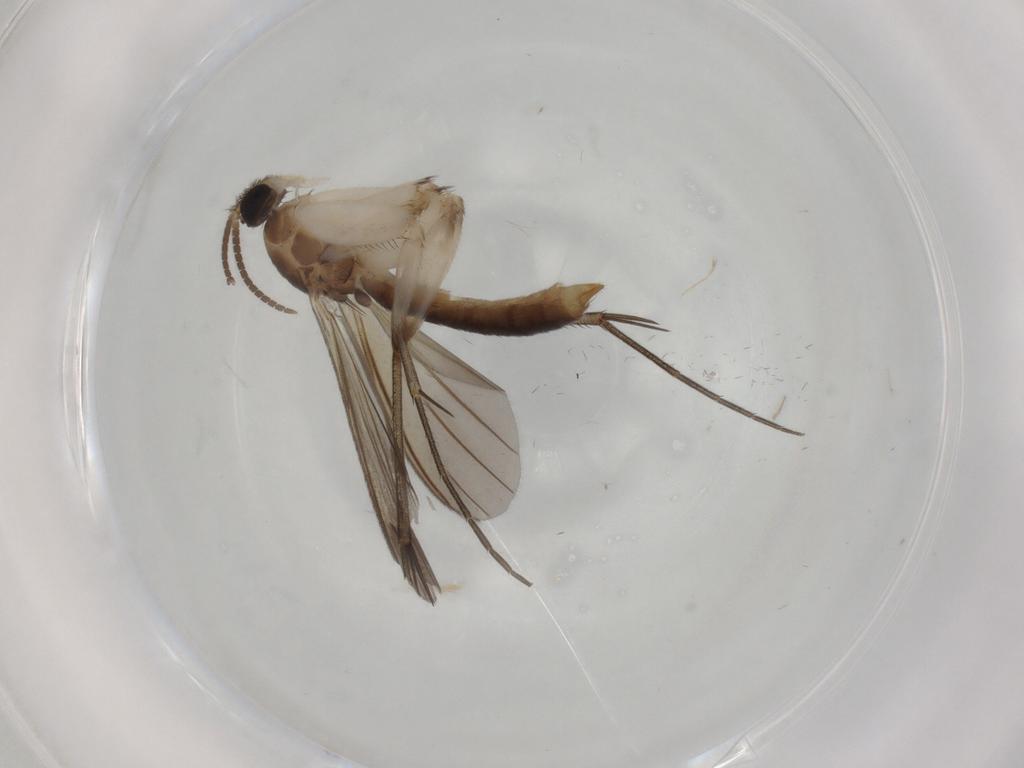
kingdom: Animalia
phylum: Arthropoda
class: Insecta
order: Diptera
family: Mycetophilidae
